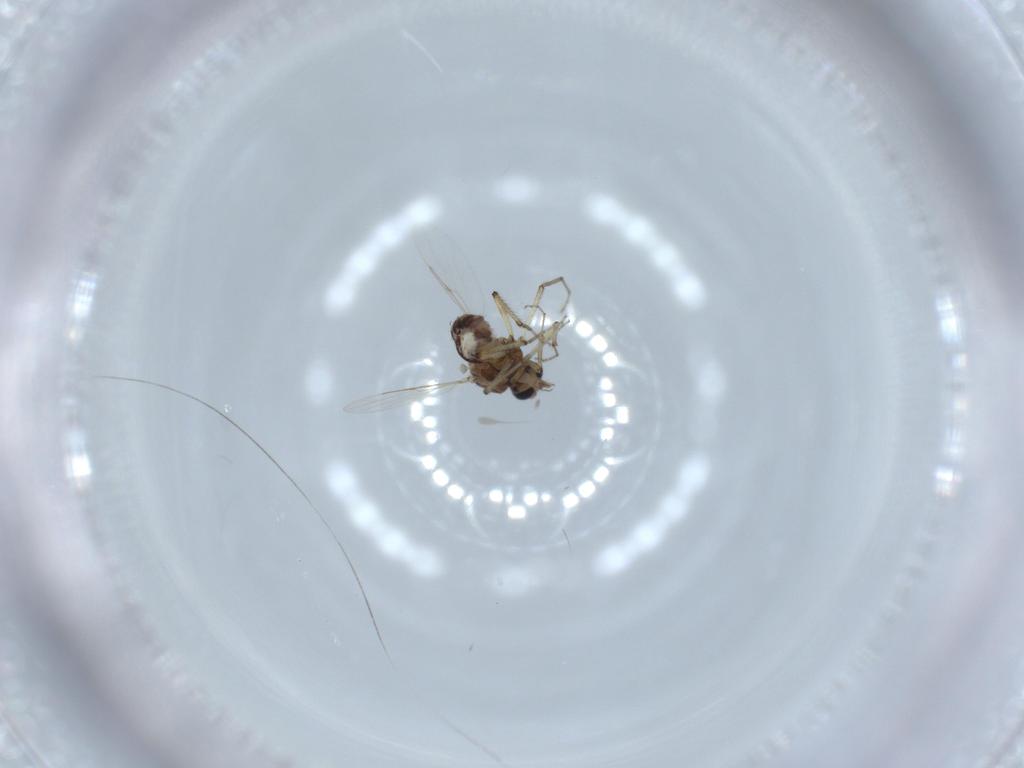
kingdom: Animalia
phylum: Arthropoda
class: Insecta
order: Diptera
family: Ceratopogonidae
